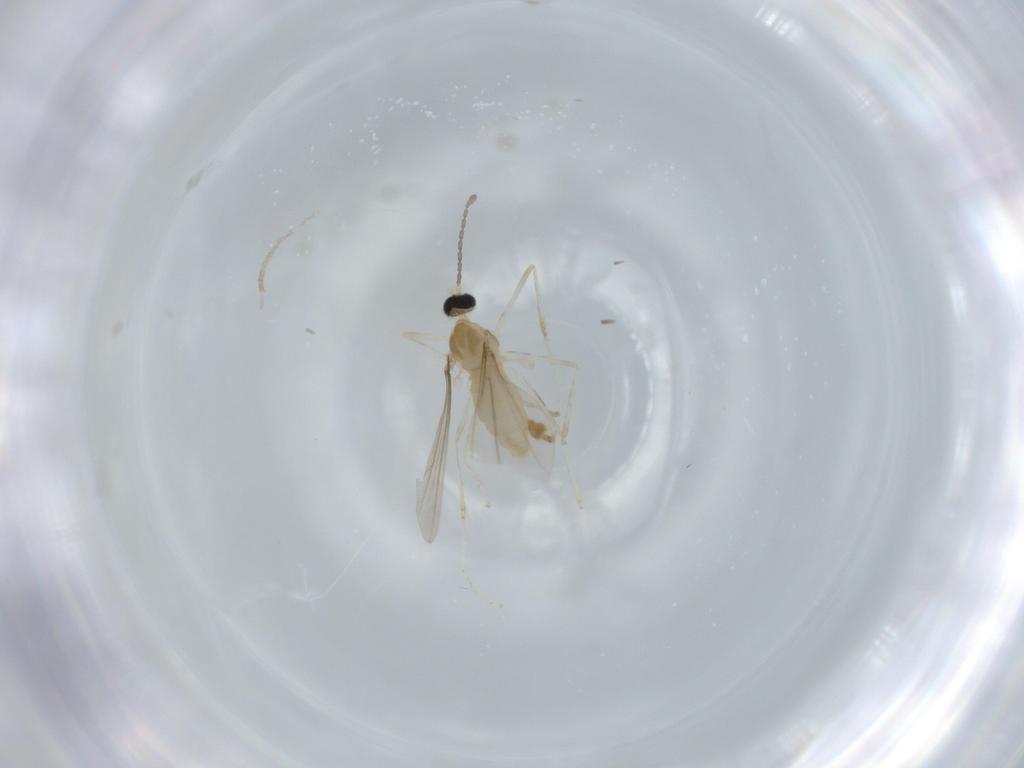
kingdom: Animalia
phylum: Arthropoda
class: Insecta
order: Diptera
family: Cecidomyiidae
